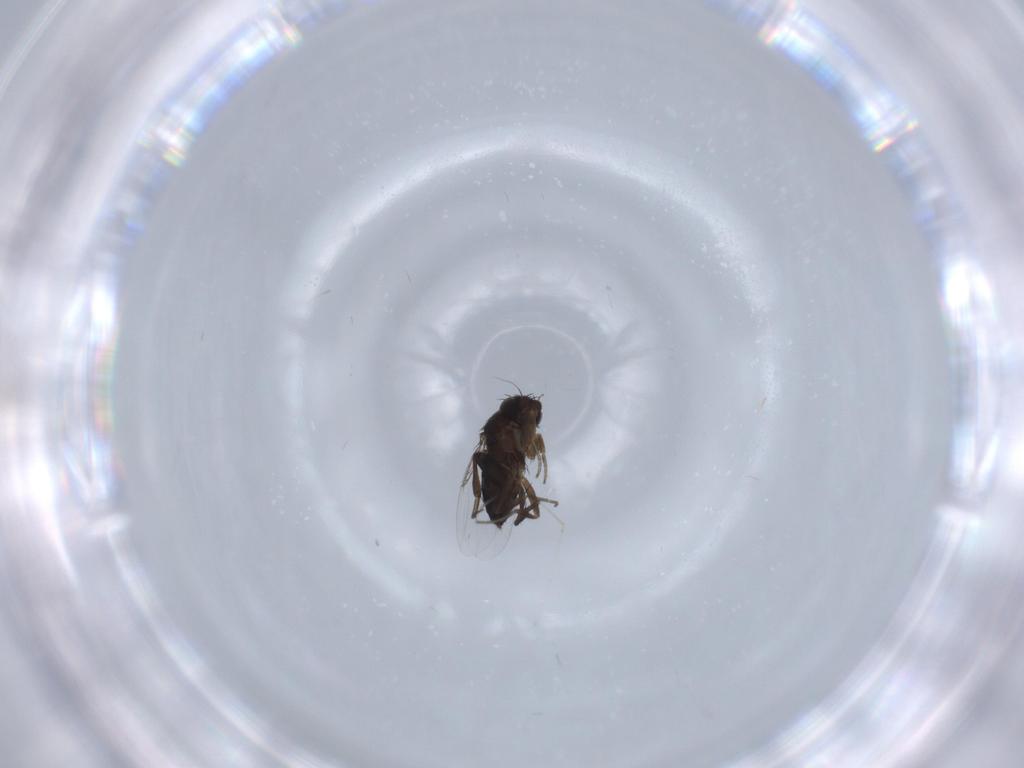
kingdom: Animalia
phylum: Arthropoda
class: Insecta
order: Diptera
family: Phoridae
